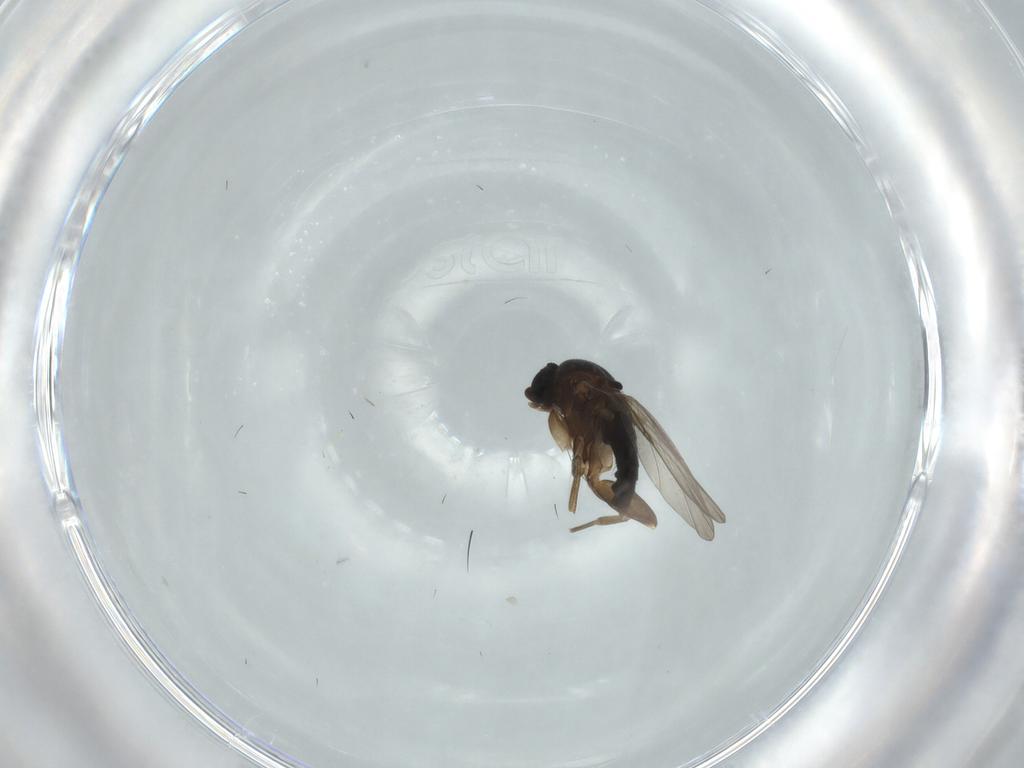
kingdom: Animalia
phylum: Arthropoda
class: Insecta
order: Diptera
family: Phoridae
